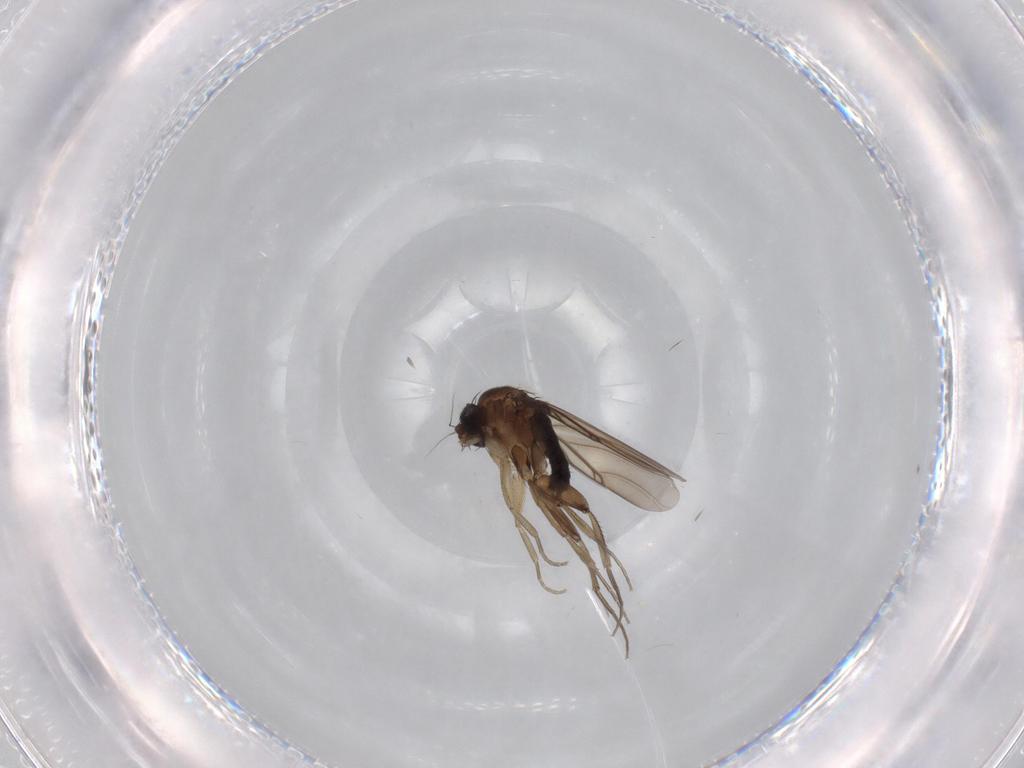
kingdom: Animalia
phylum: Arthropoda
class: Insecta
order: Diptera
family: Phoridae
